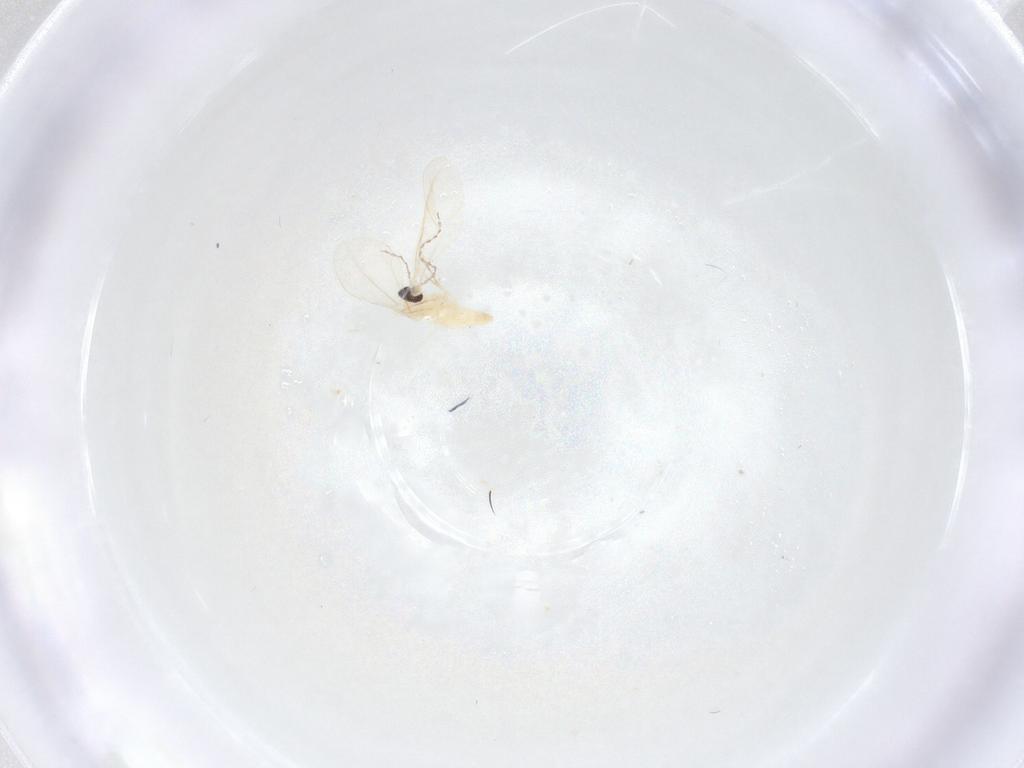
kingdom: Animalia
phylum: Arthropoda
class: Insecta
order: Diptera
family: Cecidomyiidae
